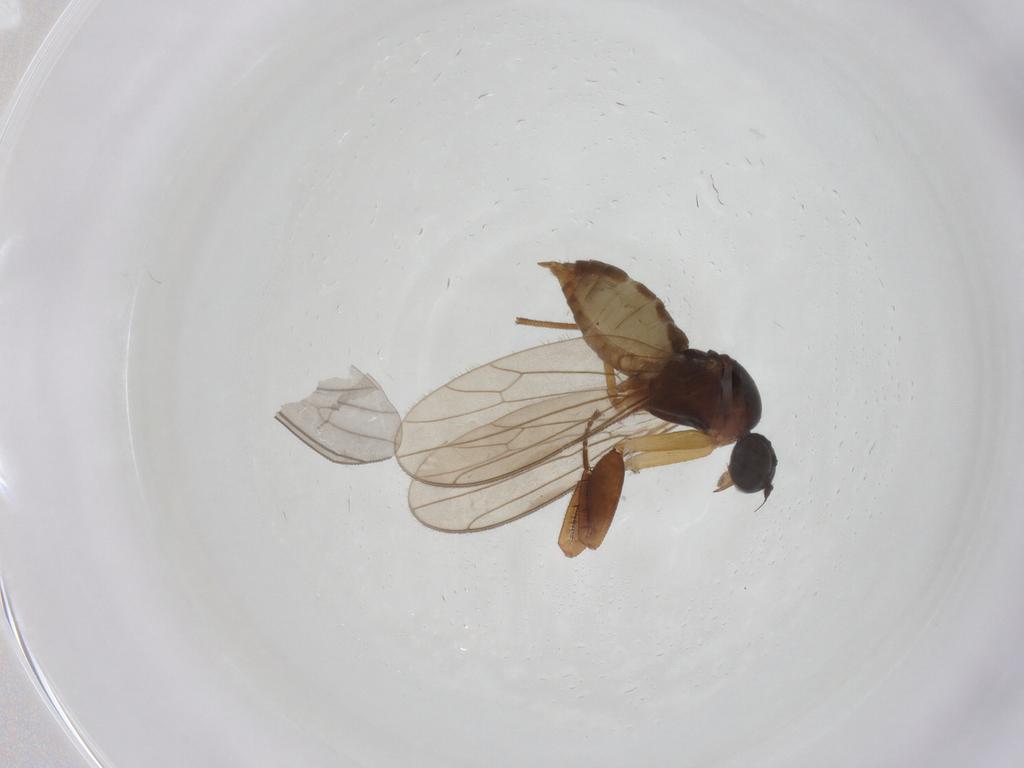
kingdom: Animalia
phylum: Arthropoda
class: Insecta
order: Diptera
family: Empididae
